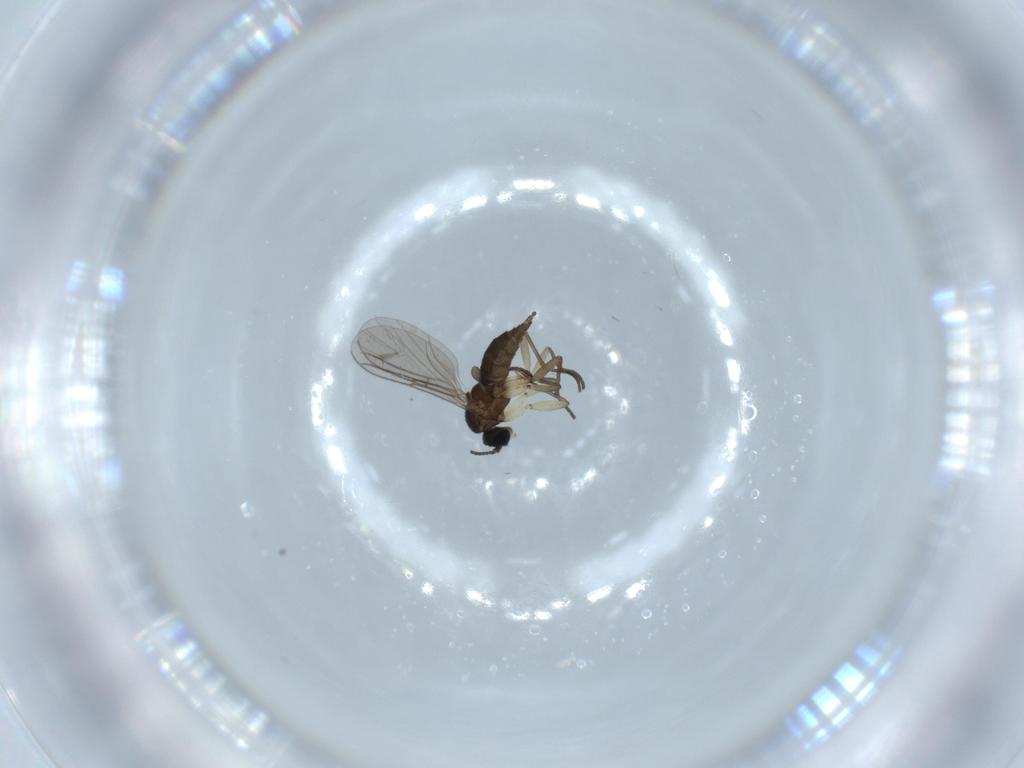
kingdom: Animalia
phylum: Arthropoda
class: Insecta
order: Diptera
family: Sciaridae
